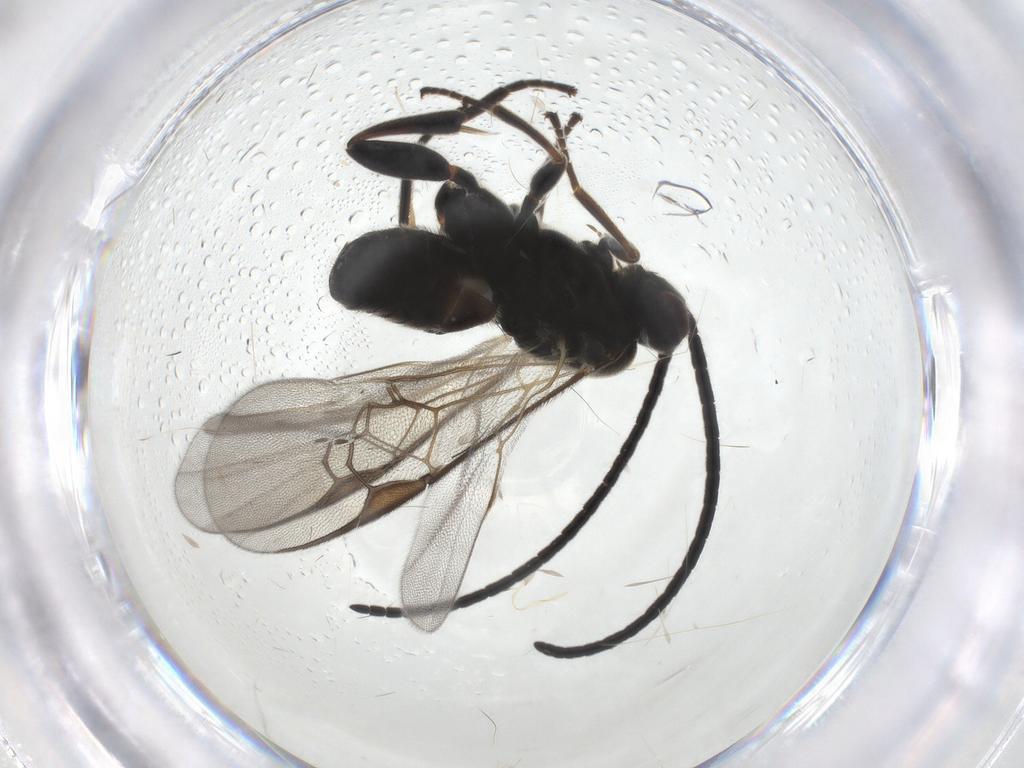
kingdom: Animalia
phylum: Arthropoda
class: Insecta
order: Hymenoptera
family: Braconidae
